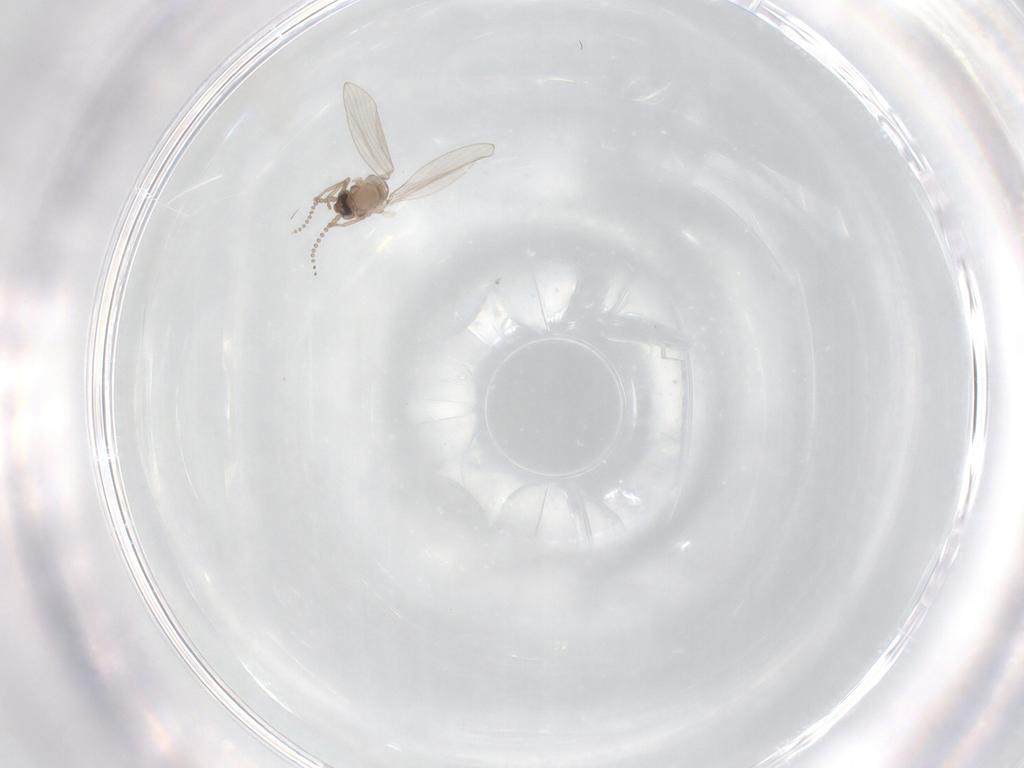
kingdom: Animalia
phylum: Arthropoda
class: Insecta
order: Diptera
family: Psychodidae
